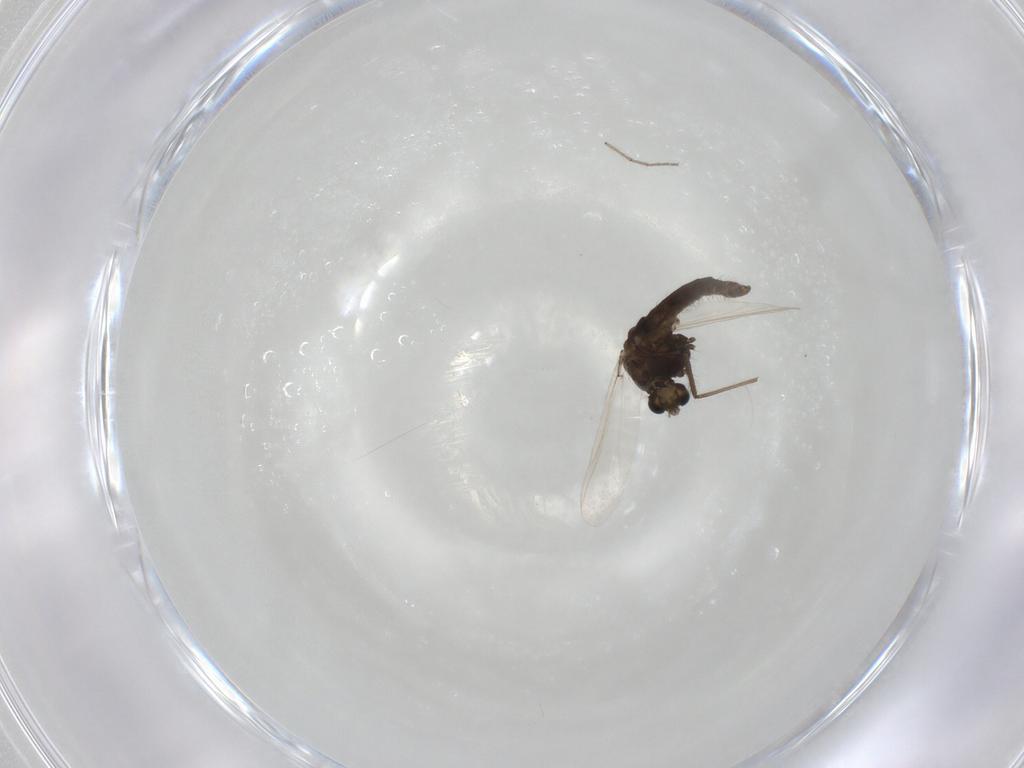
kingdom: Animalia
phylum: Arthropoda
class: Insecta
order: Diptera
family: Chironomidae
